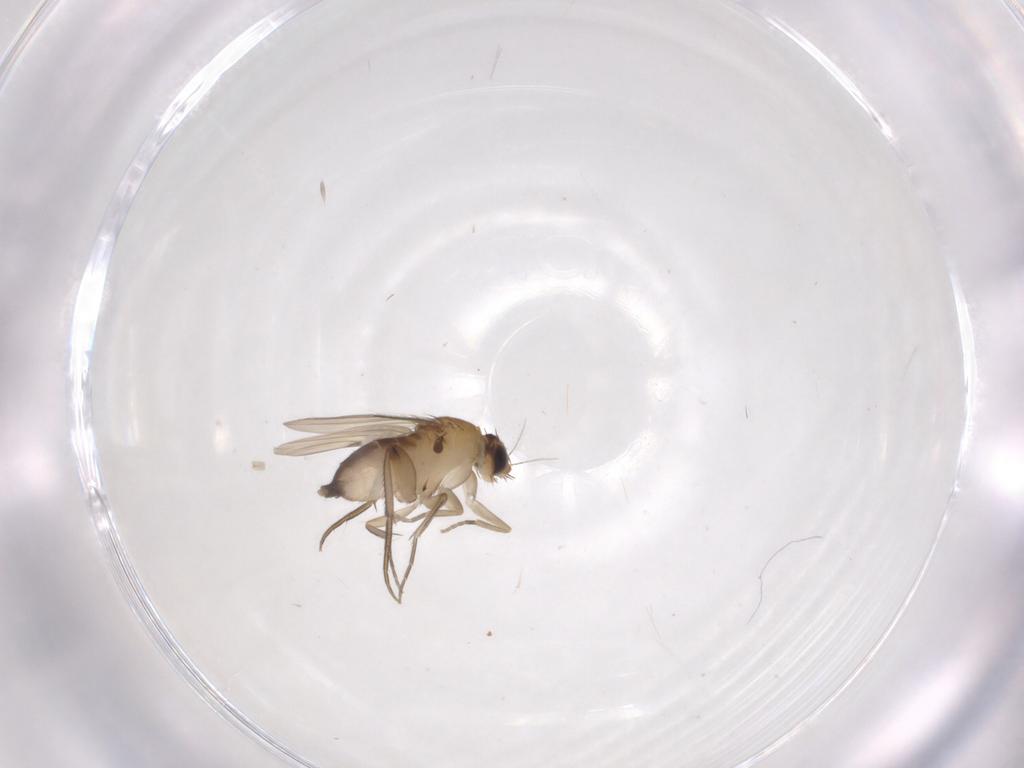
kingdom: Animalia
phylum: Arthropoda
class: Insecta
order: Diptera
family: Phoridae
